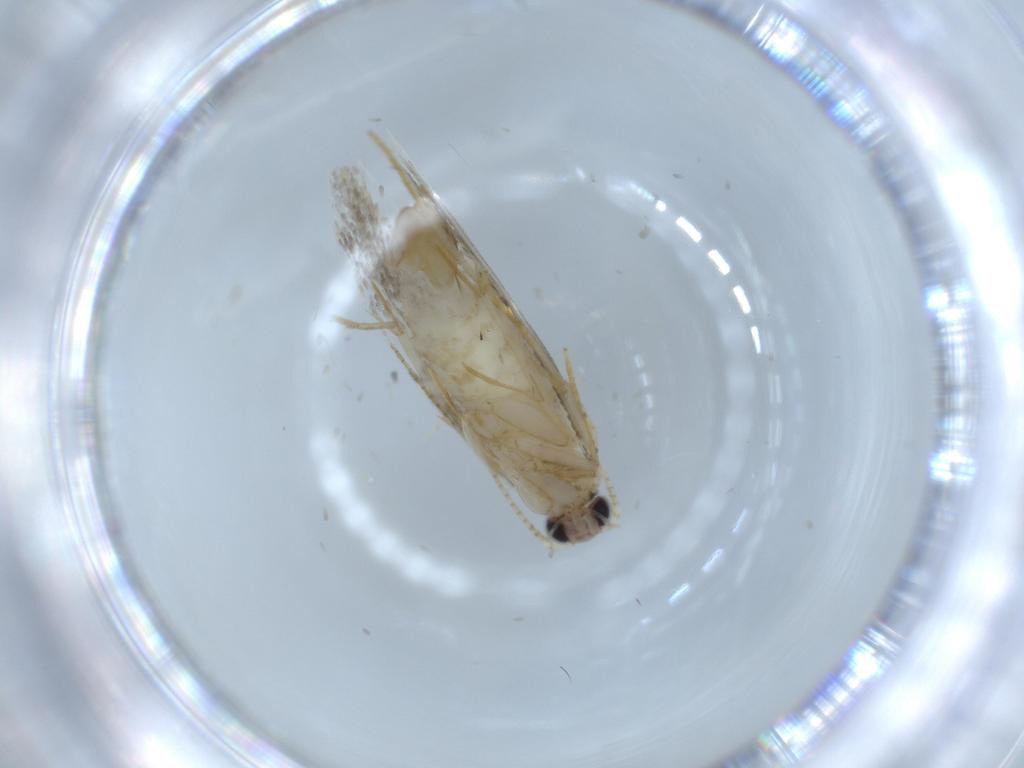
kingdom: Animalia
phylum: Arthropoda
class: Insecta
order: Lepidoptera
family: Tineidae
